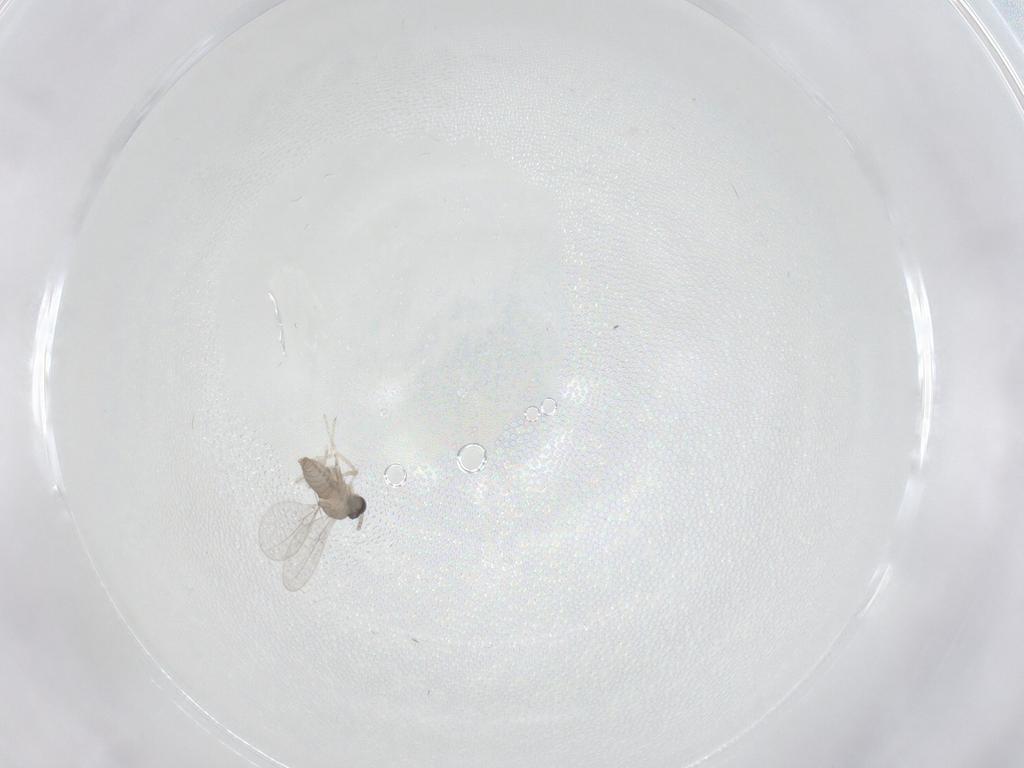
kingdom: Animalia
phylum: Arthropoda
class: Insecta
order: Diptera
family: Cecidomyiidae
